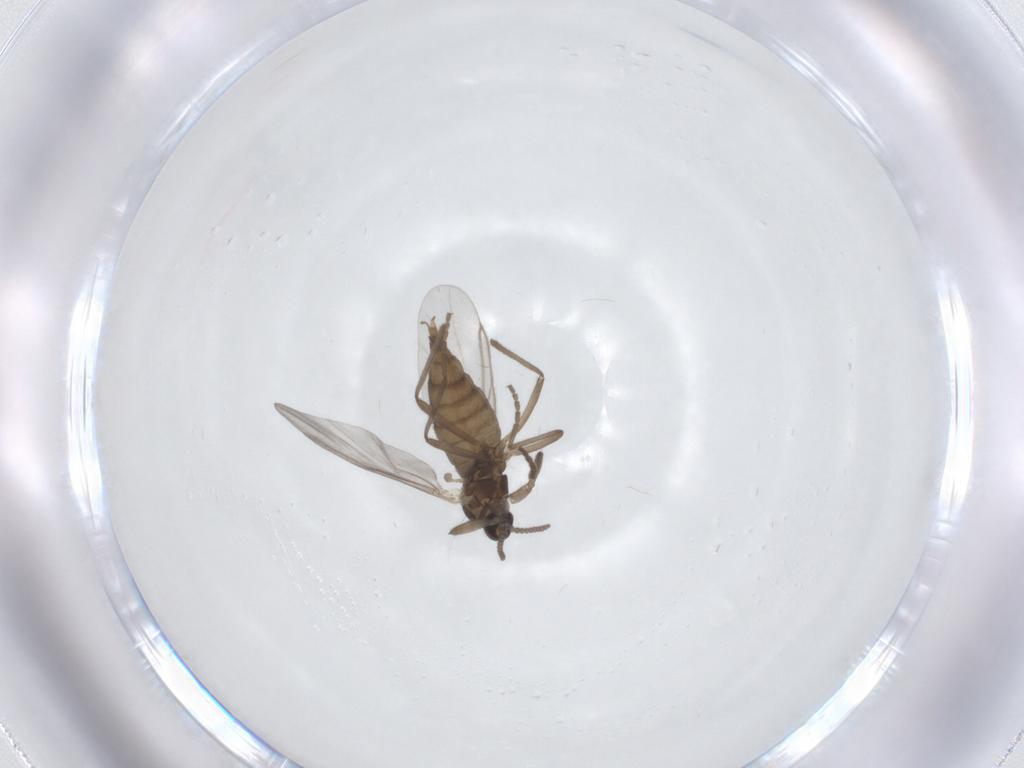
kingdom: Animalia
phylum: Arthropoda
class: Insecta
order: Diptera
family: Cecidomyiidae
